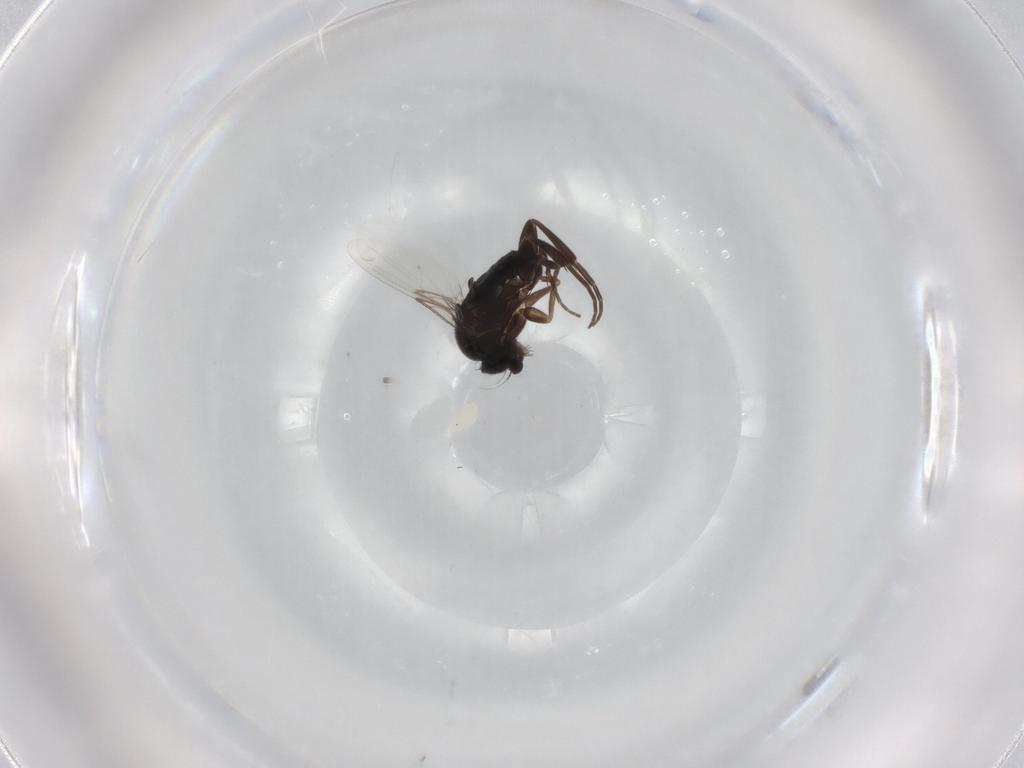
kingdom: Animalia
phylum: Arthropoda
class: Insecta
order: Diptera
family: Phoridae
